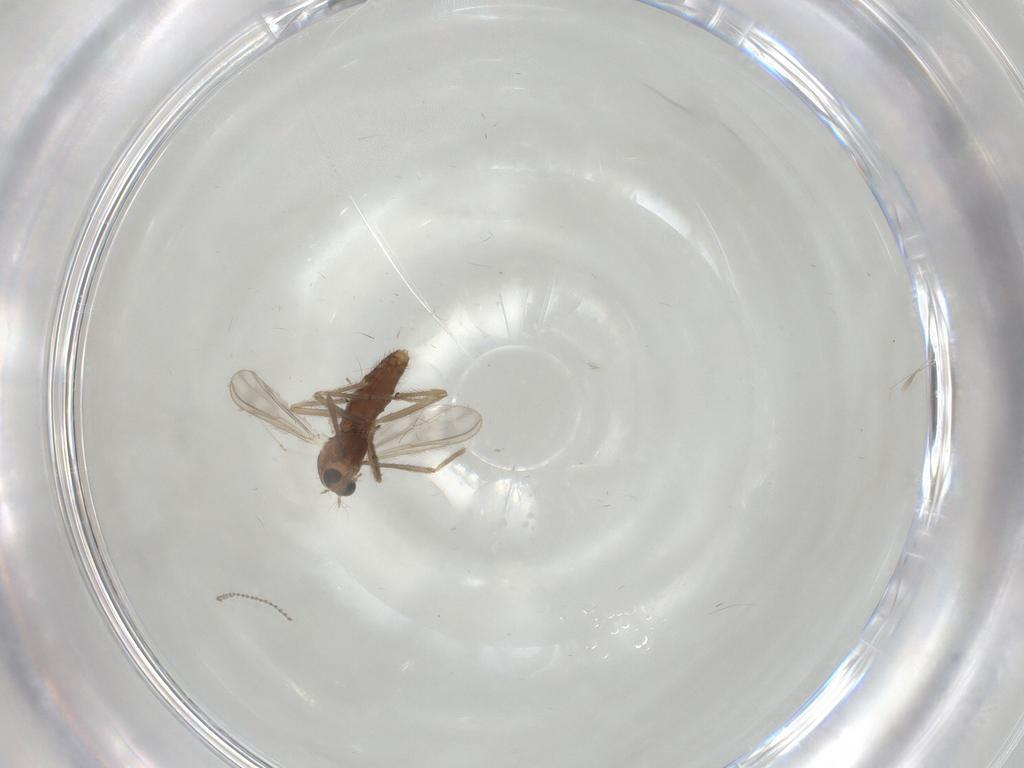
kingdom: Animalia
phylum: Arthropoda
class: Insecta
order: Diptera
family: Chironomidae
